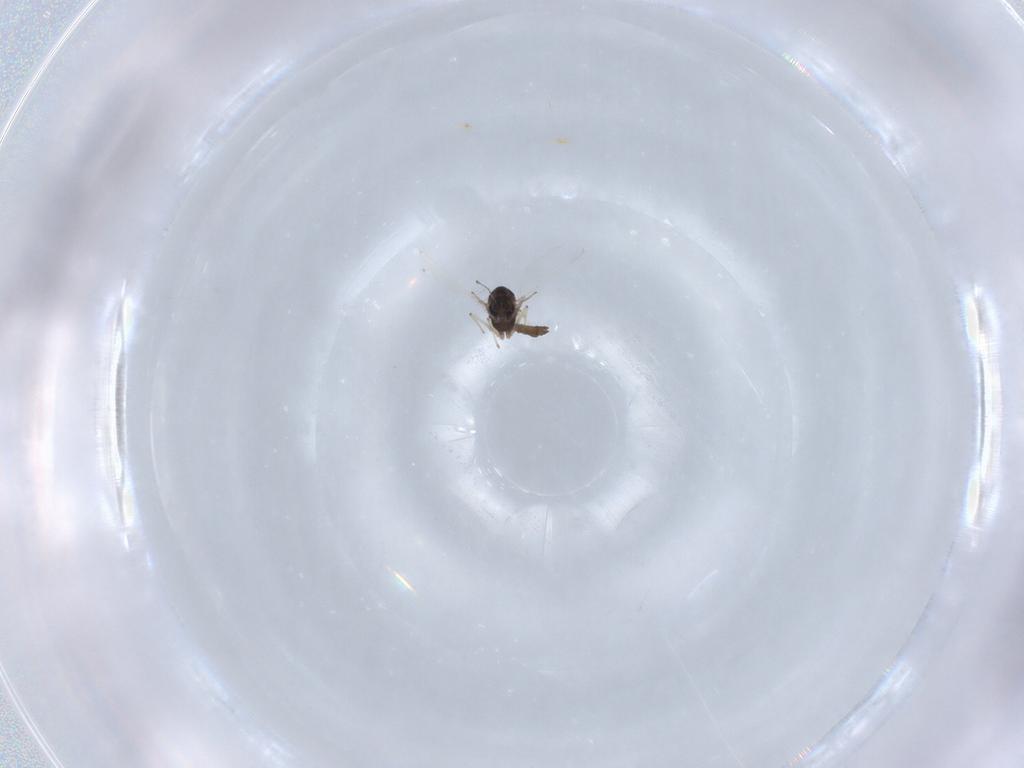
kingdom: Animalia
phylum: Arthropoda
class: Insecta
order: Diptera
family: Chironomidae
